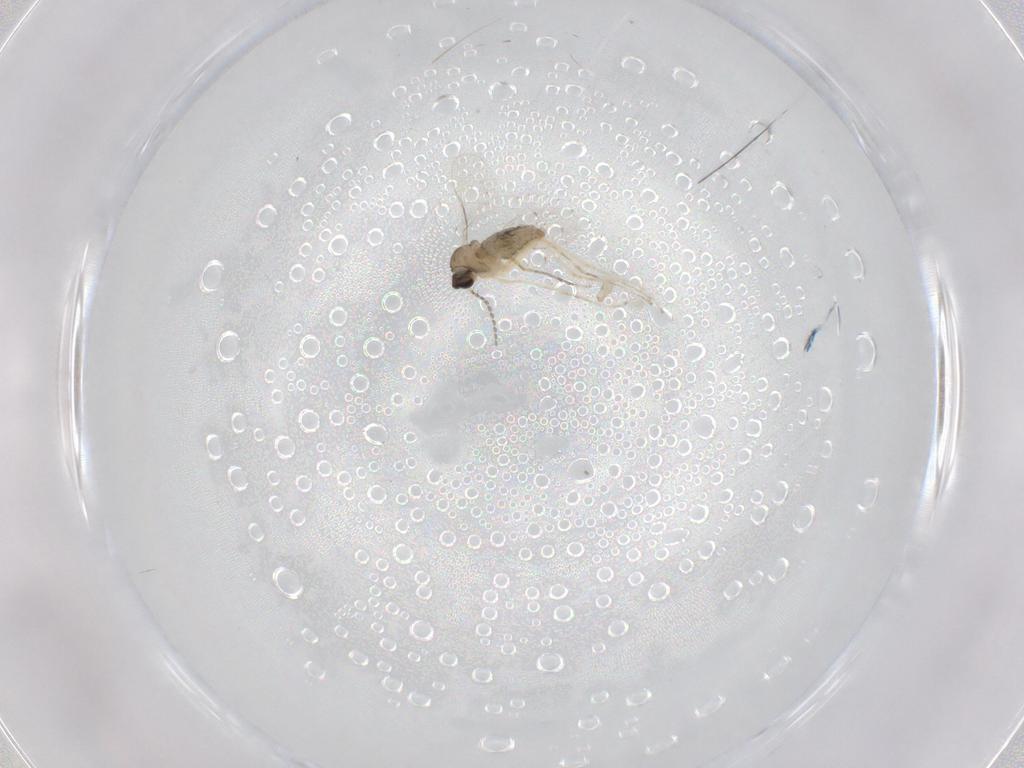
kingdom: Animalia
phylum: Arthropoda
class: Insecta
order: Diptera
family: Cecidomyiidae
